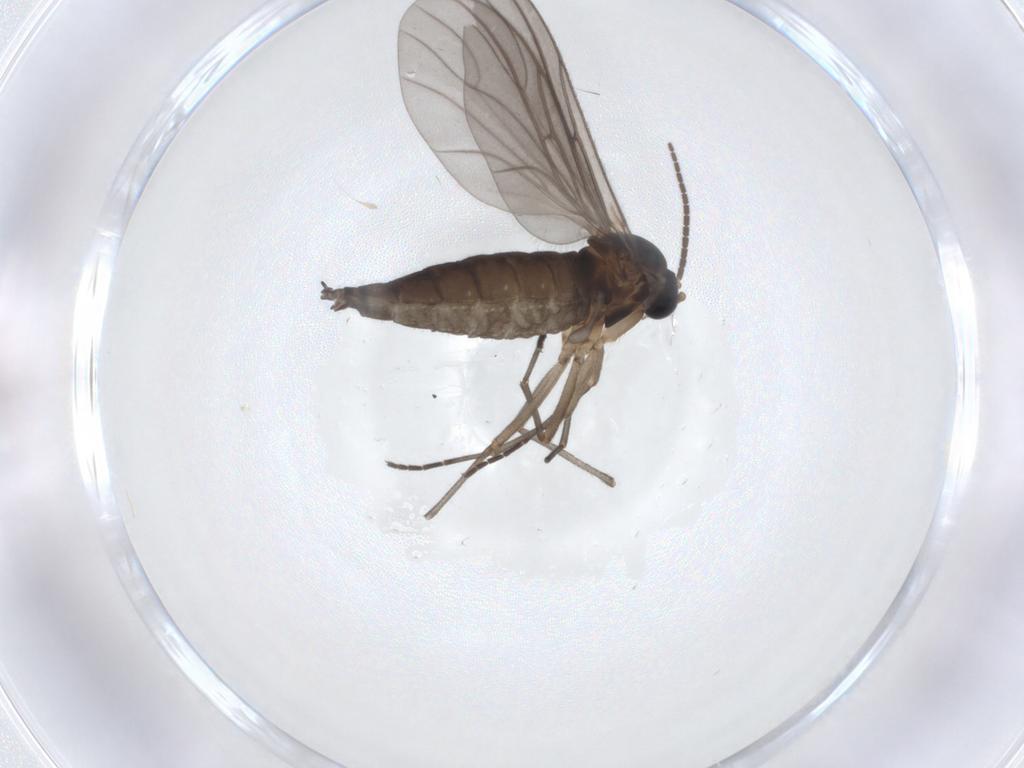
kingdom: Animalia
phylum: Arthropoda
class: Insecta
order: Diptera
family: Sciaridae
